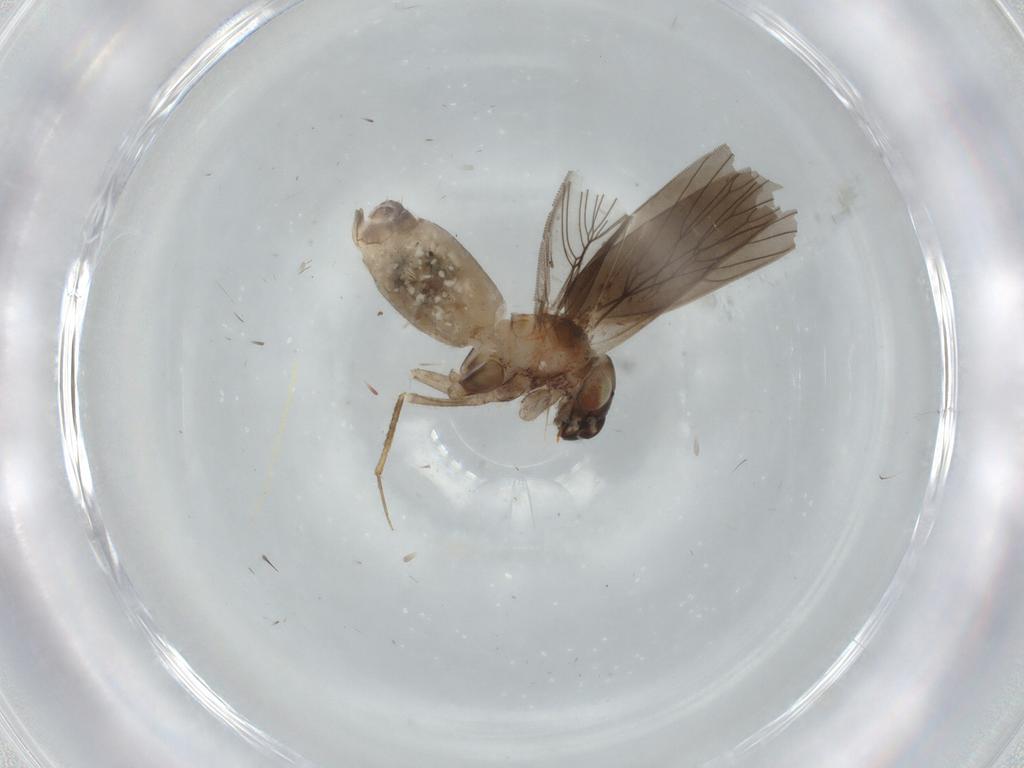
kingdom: Animalia
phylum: Arthropoda
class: Insecta
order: Psocodea
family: Lepidopsocidae
